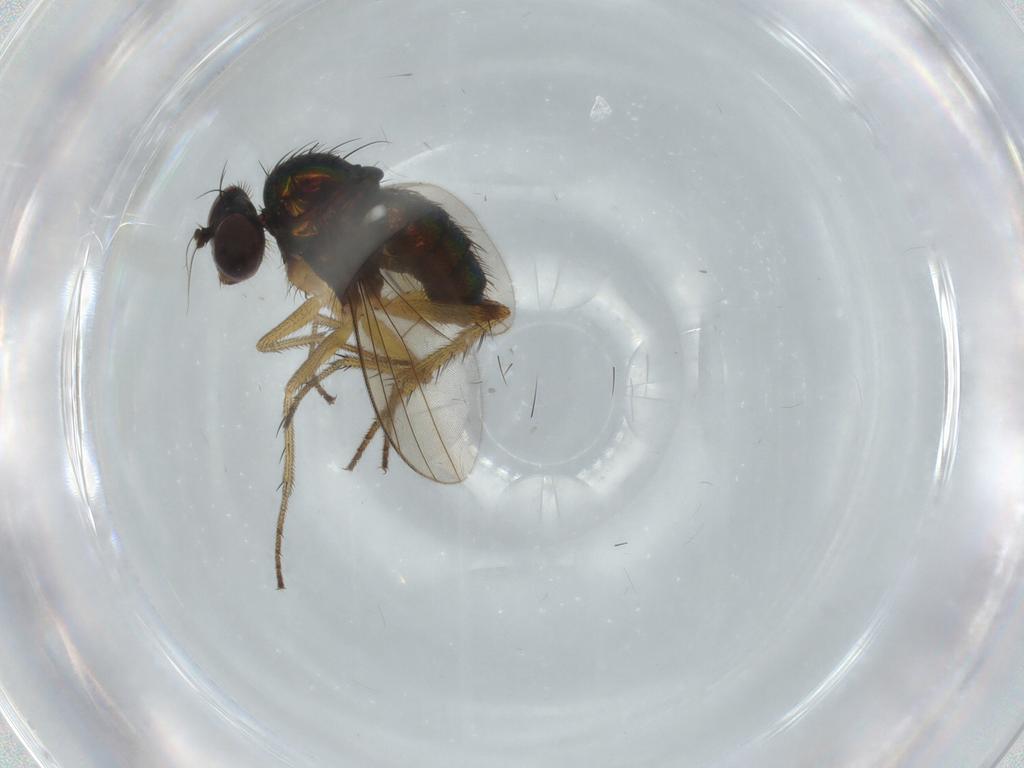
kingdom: Animalia
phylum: Arthropoda
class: Insecta
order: Diptera
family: Dolichopodidae
